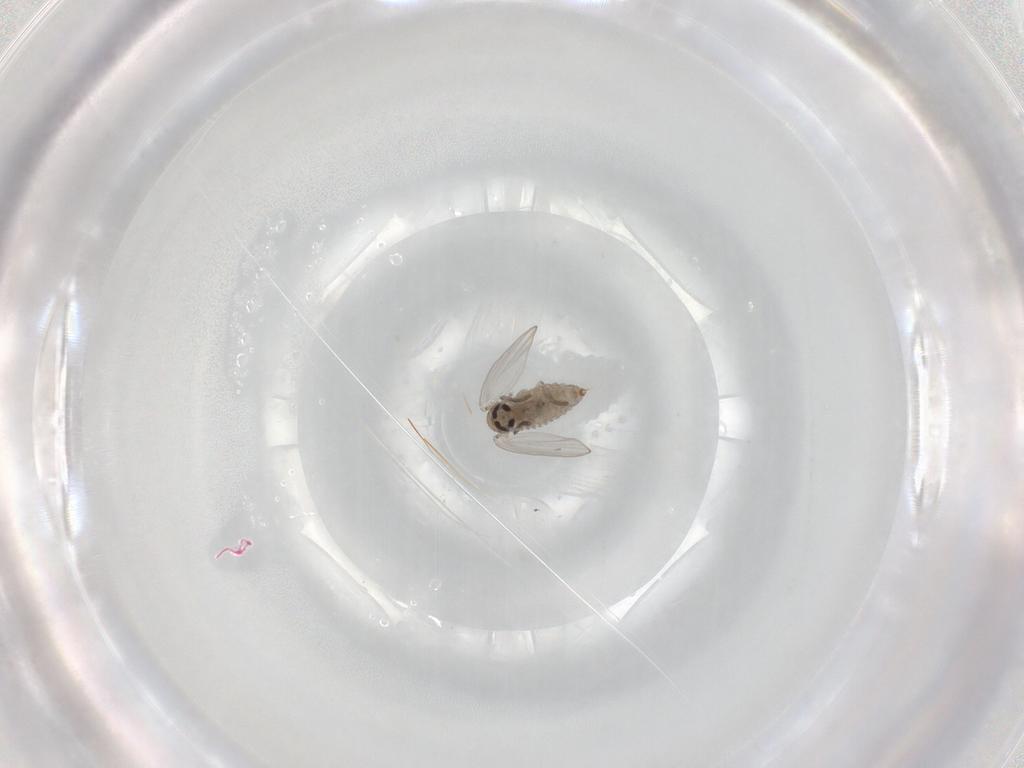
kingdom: Animalia
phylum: Arthropoda
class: Insecta
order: Diptera
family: Psychodidae
